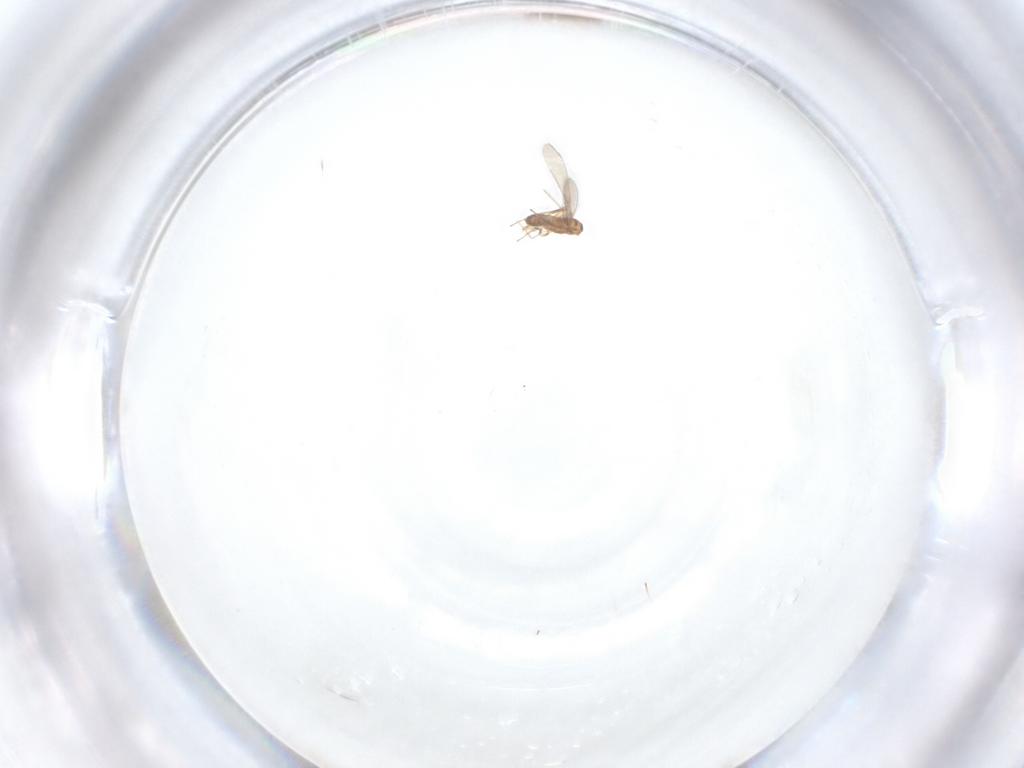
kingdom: Animalia
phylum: Arthropoda
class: Insecta
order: Hymenoptera
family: Mymaridae
